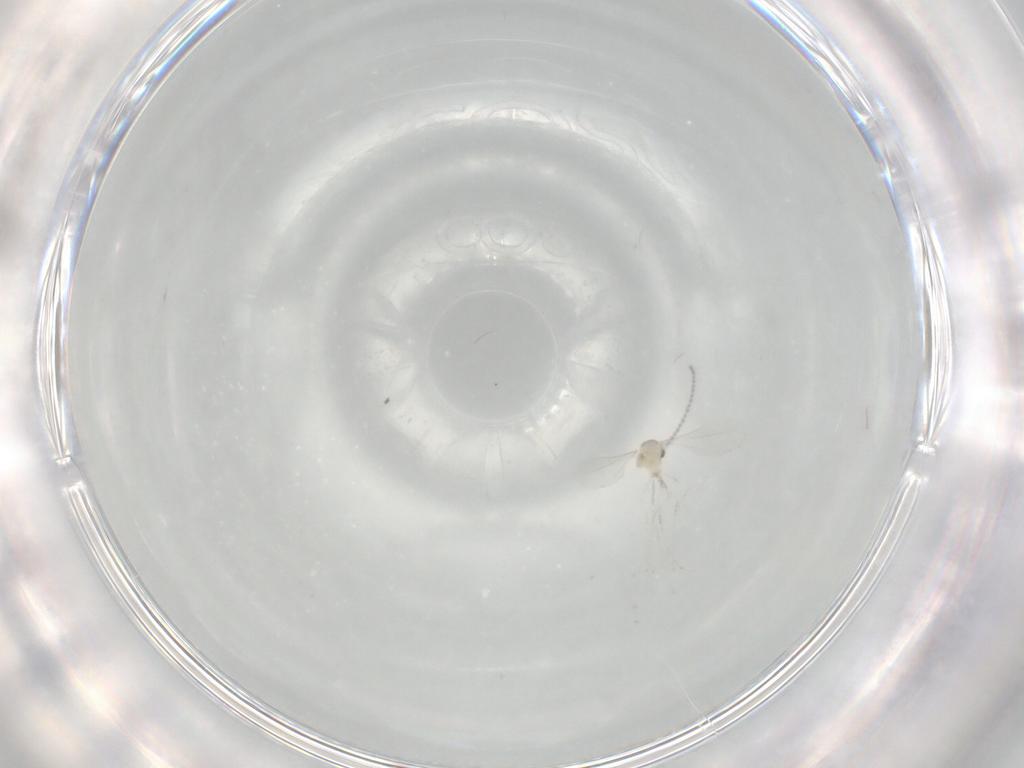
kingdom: Animalia
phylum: Arthropoda
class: Insecta
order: Diptera
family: Cecidomyiidae
